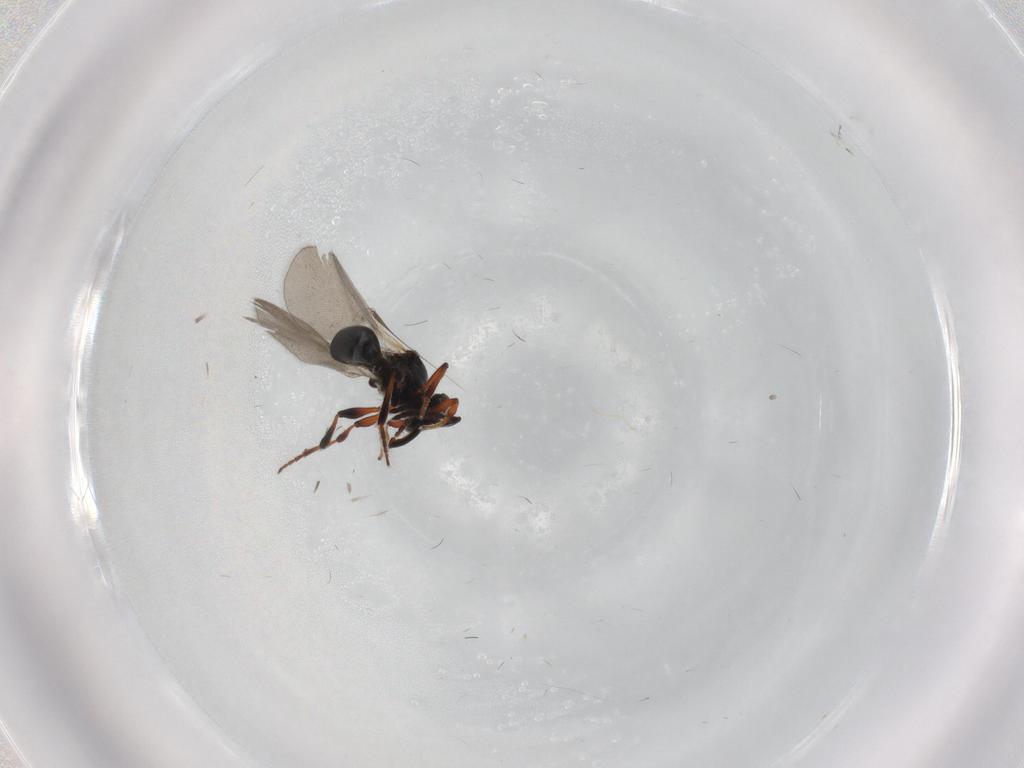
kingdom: Animalia
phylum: Arthropoda
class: Insecta
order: Hymenoptera
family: Platygastridae
